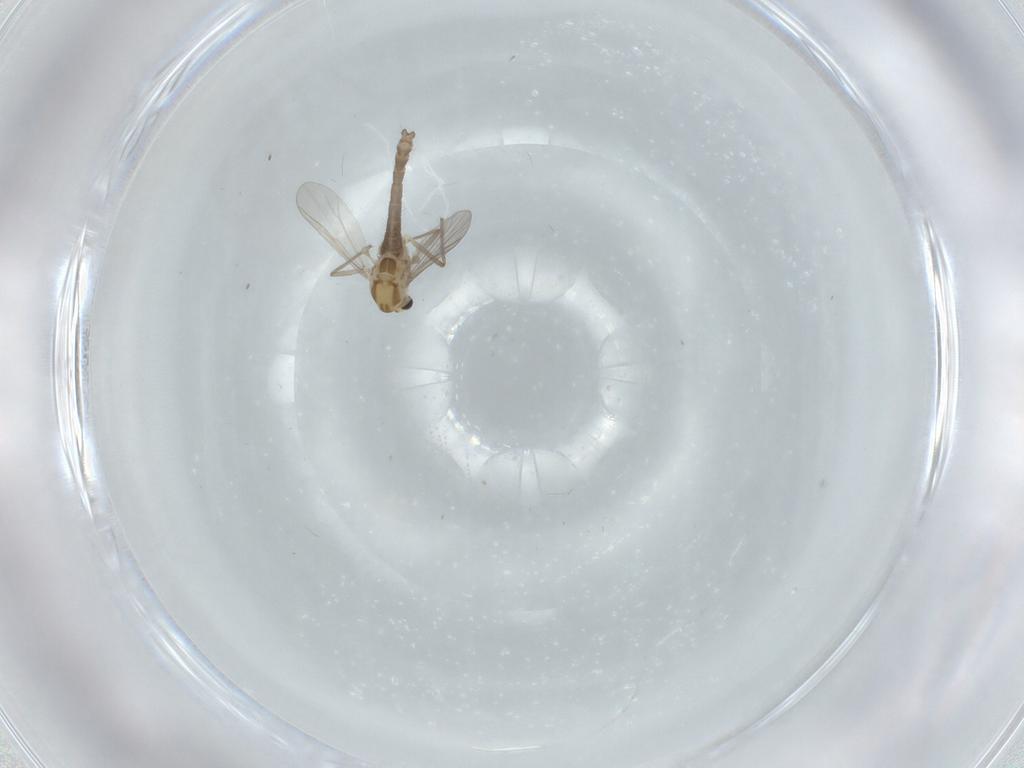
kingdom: Animalia
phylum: Arthropoda
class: Insecta
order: Diptera
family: Chironomidae
